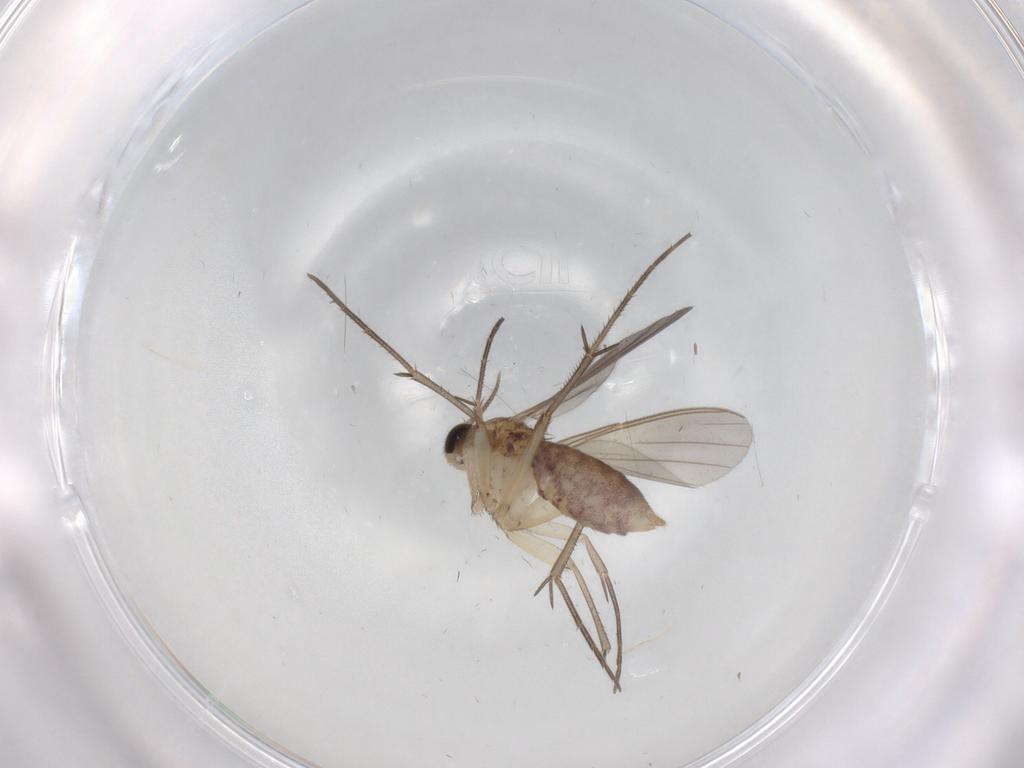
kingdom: Animalia
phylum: Arthropoda
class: Insecta
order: Diptera
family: Mycetophilidae
